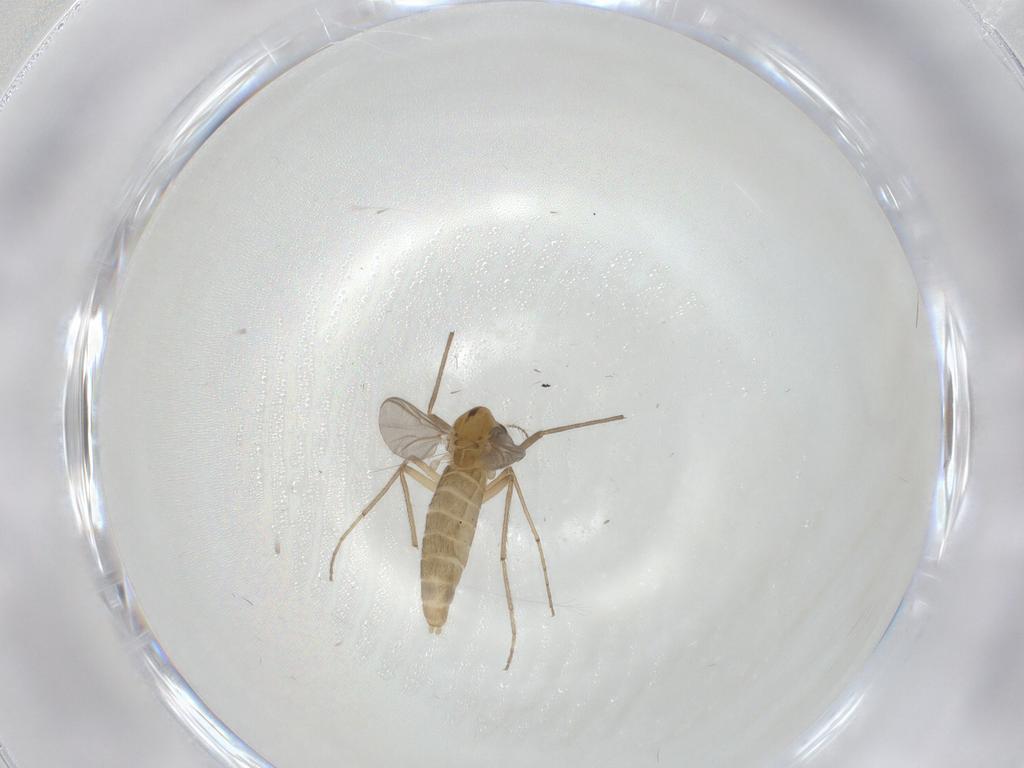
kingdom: Animalia
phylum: Arthropoda
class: Insecta
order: Diptera
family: Chironomidae
